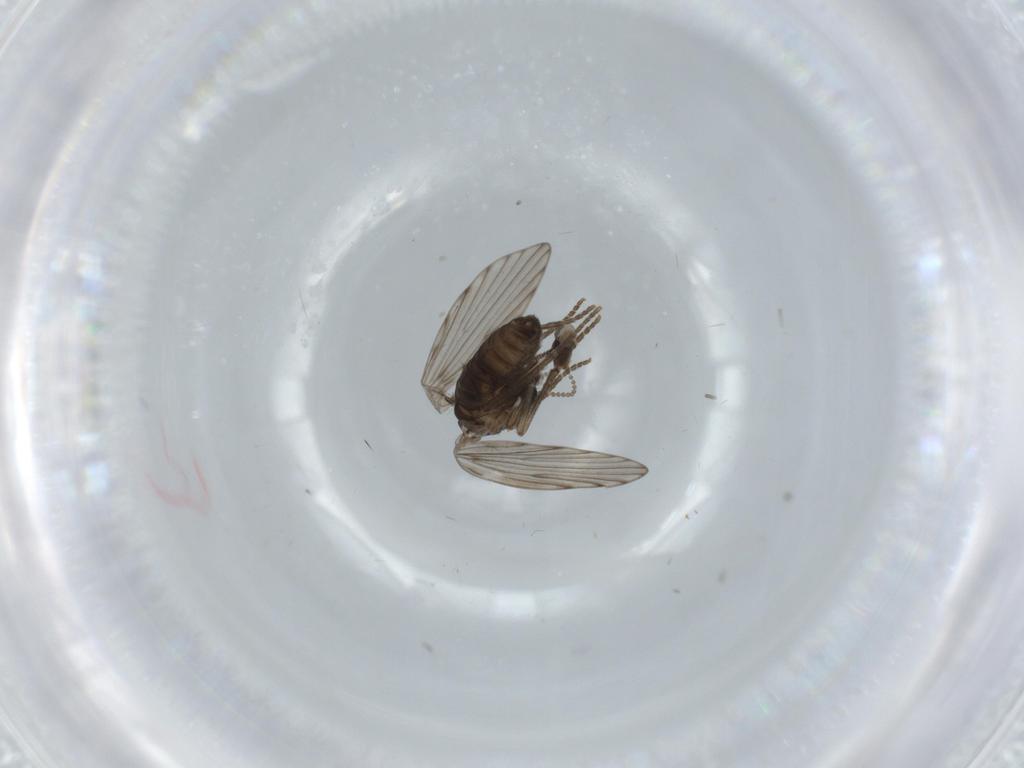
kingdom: Animalia
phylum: Arthropoda
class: Insecta
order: Diptera
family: Psychodidae
